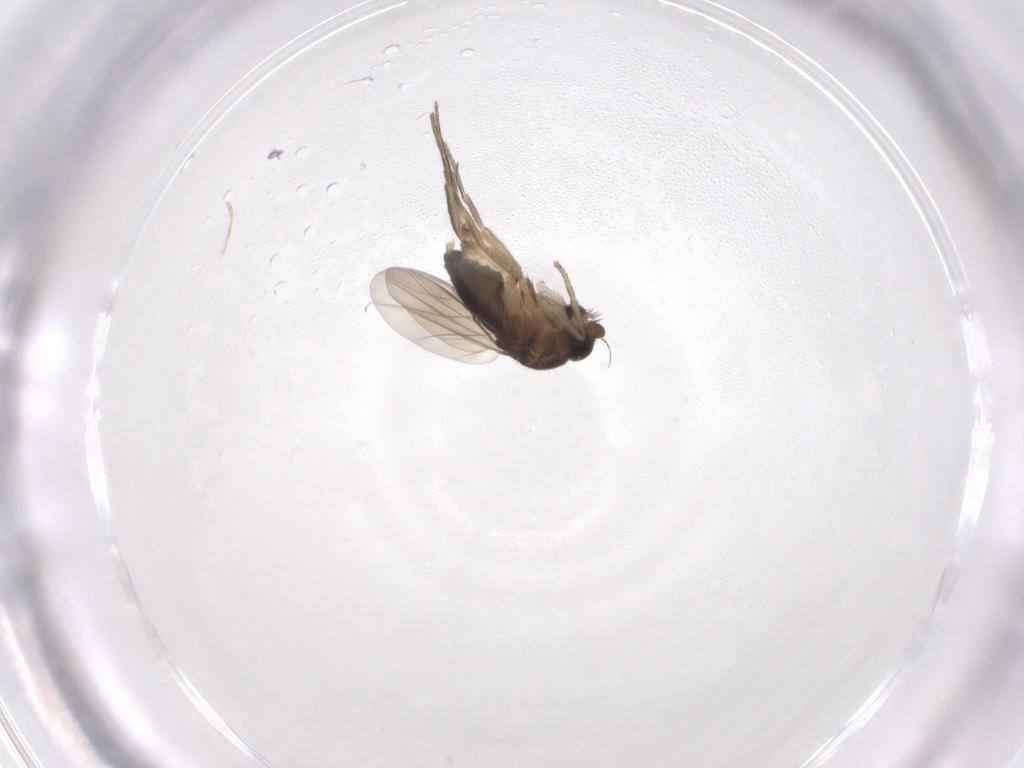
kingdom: Animalia
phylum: Arthropoda
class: Insecta
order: Diptera
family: Phoridae
